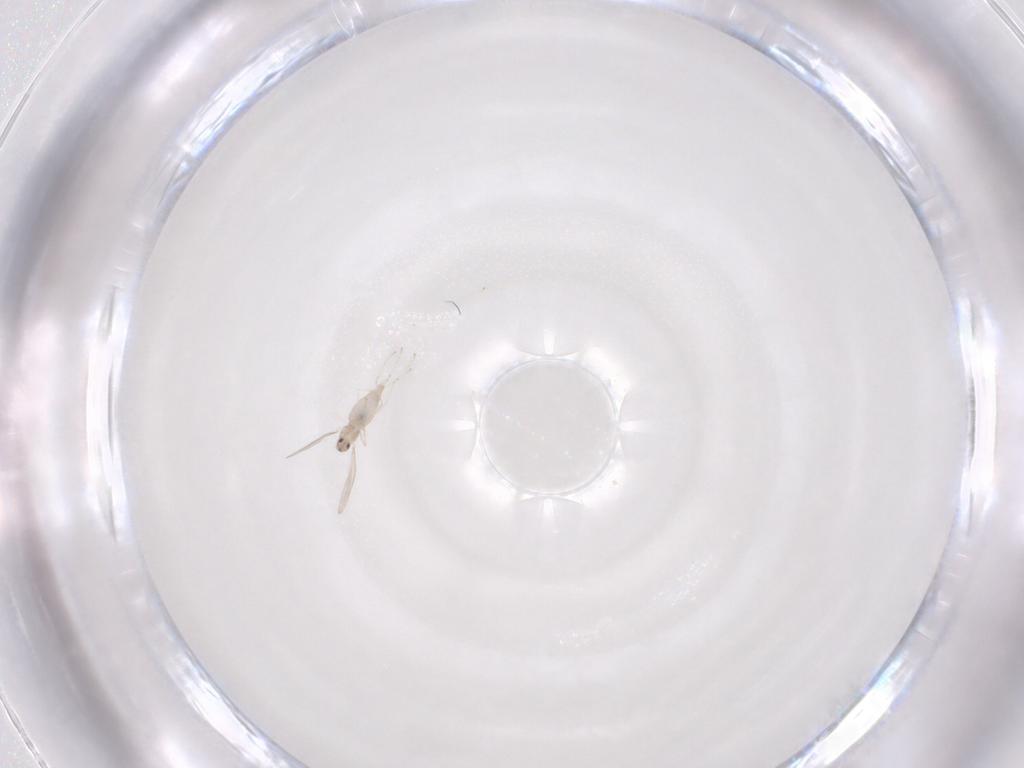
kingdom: Animalia
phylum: Arthropoda
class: Insecta
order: Diptera
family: Cecidomyiidae
